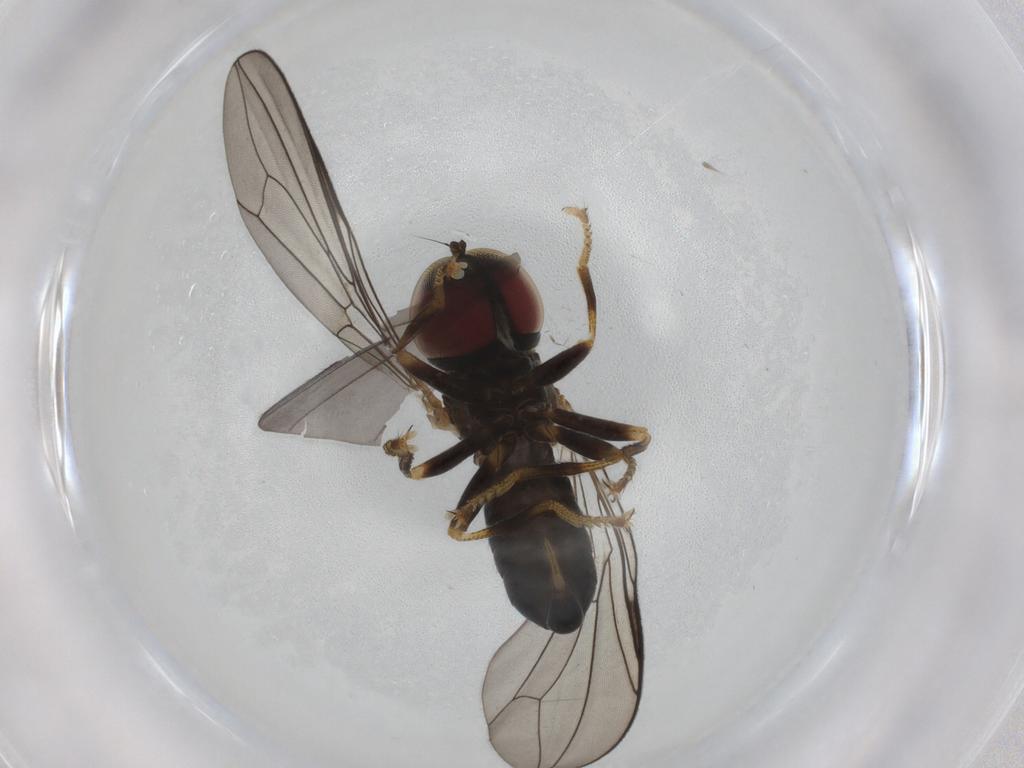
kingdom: Animalia
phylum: Arthropoda
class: Insecta
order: Diptera
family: Pipunculidae
